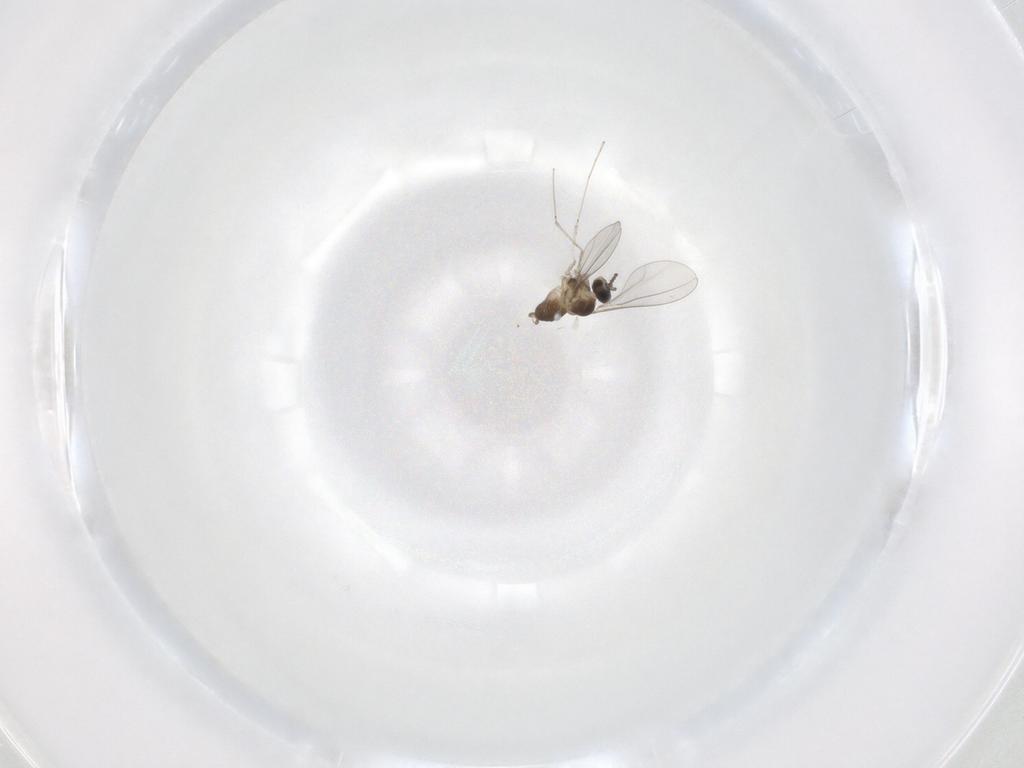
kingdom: Animalia
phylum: Arthropoda
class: Insecta
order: Diptera
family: Cecidomyiidae
